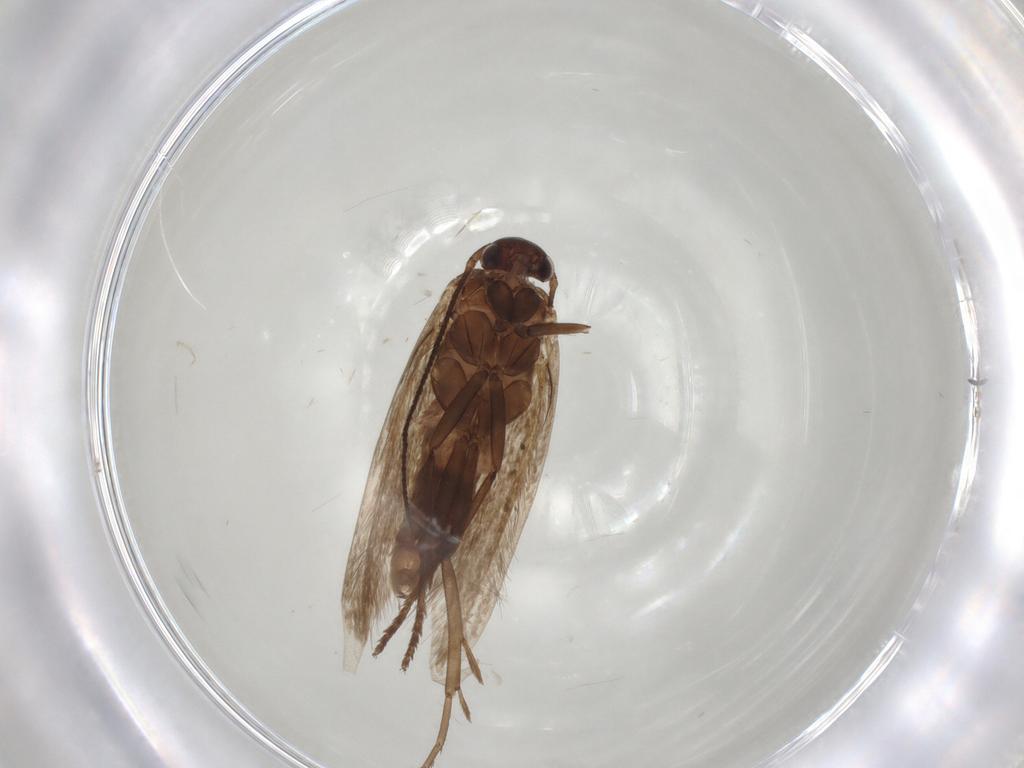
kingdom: Animalia
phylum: Arthropoda
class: Insecta
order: Lepidoptera
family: Scythrididae
